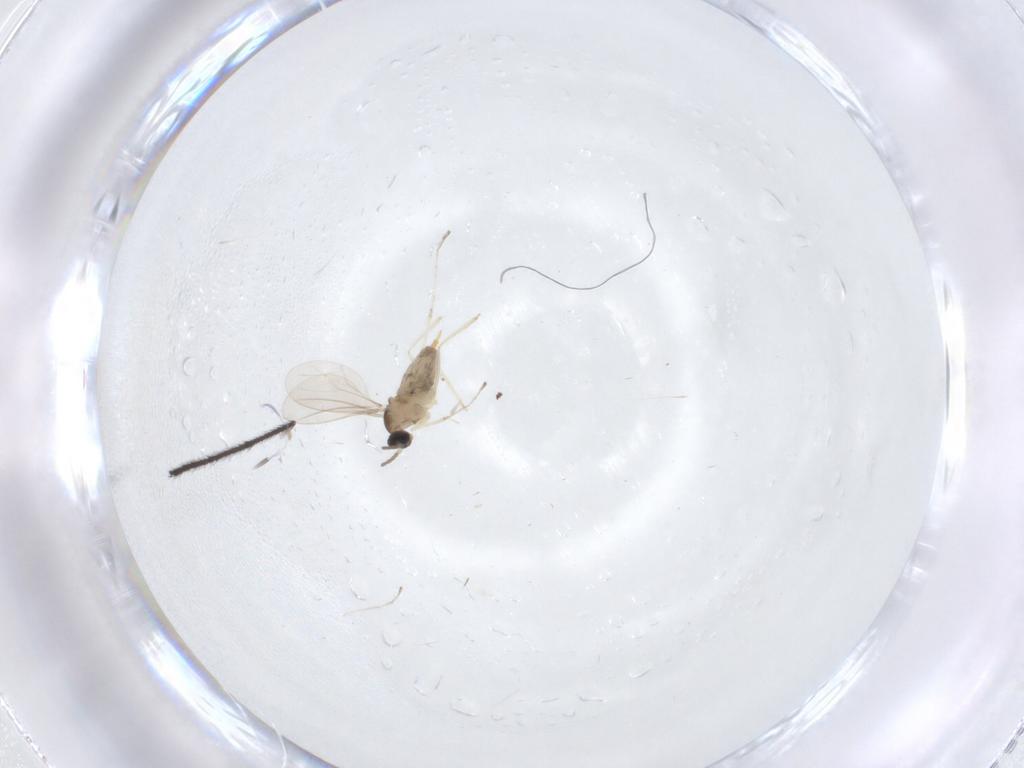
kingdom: Animalia
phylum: Arthropoda
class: Insecta
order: Diptera
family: Cecidomyiidae
